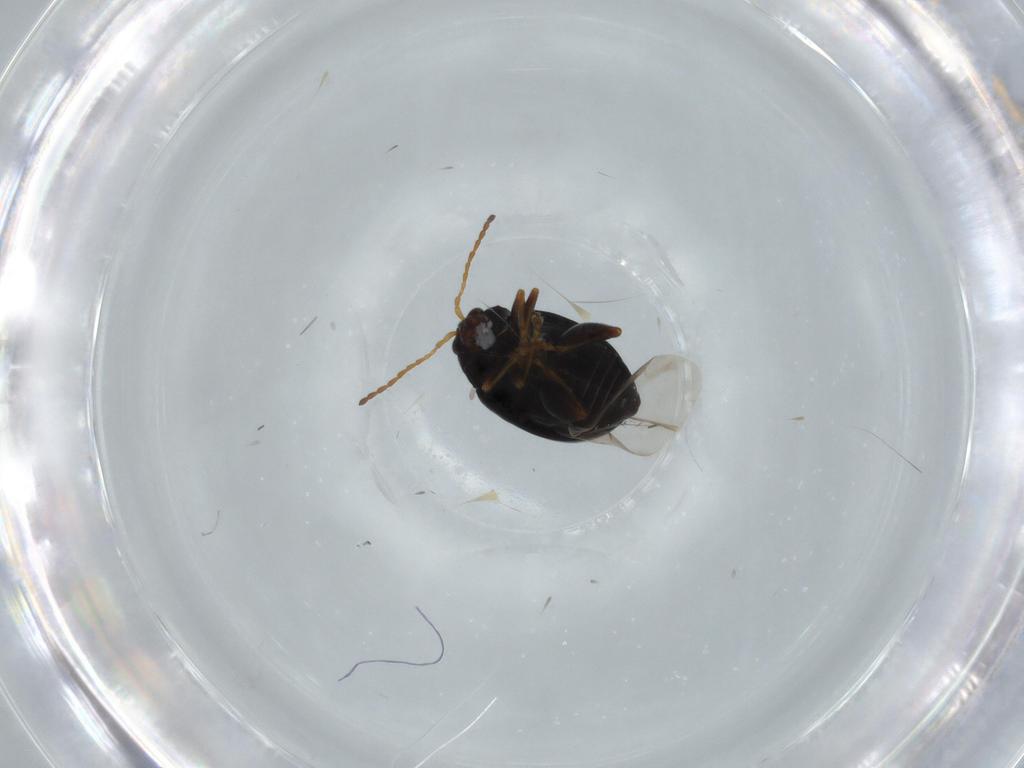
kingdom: Animalia
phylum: Arthropoda
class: Insecta
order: Coleoptera
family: Chrysomelidae
